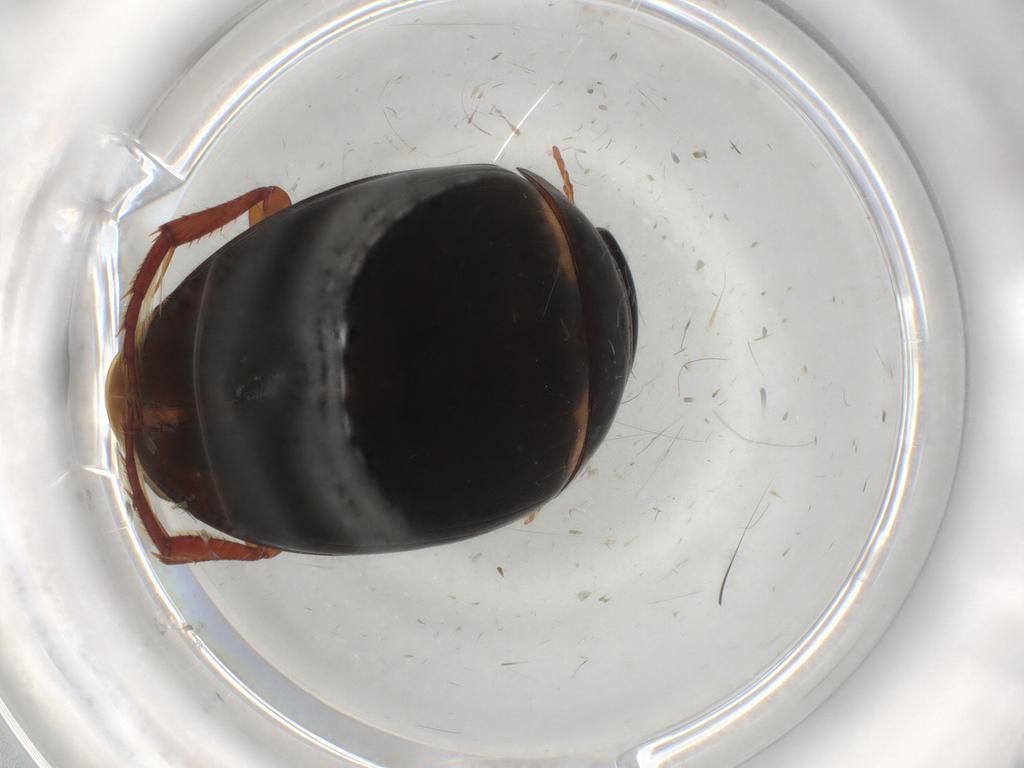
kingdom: Animalia
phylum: Arthropoda
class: Insecta
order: Coleoptera
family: Dytiscidae
